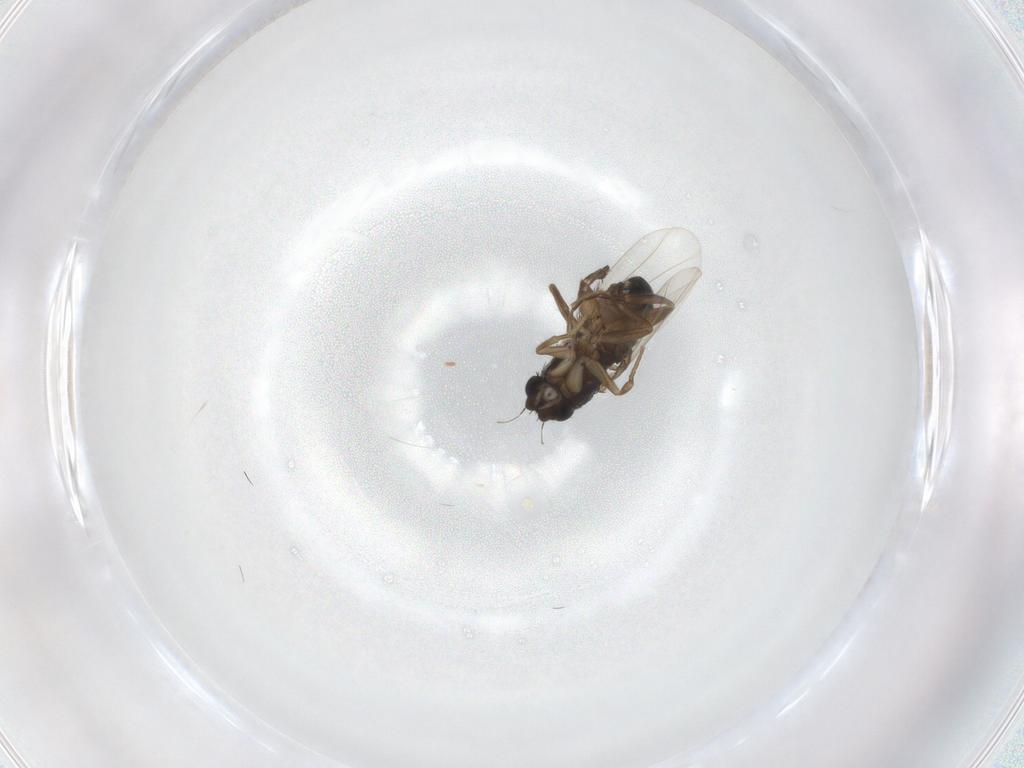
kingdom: Animalia
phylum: Arthropoda
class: Insecta
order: Diptera
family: Phoridae
